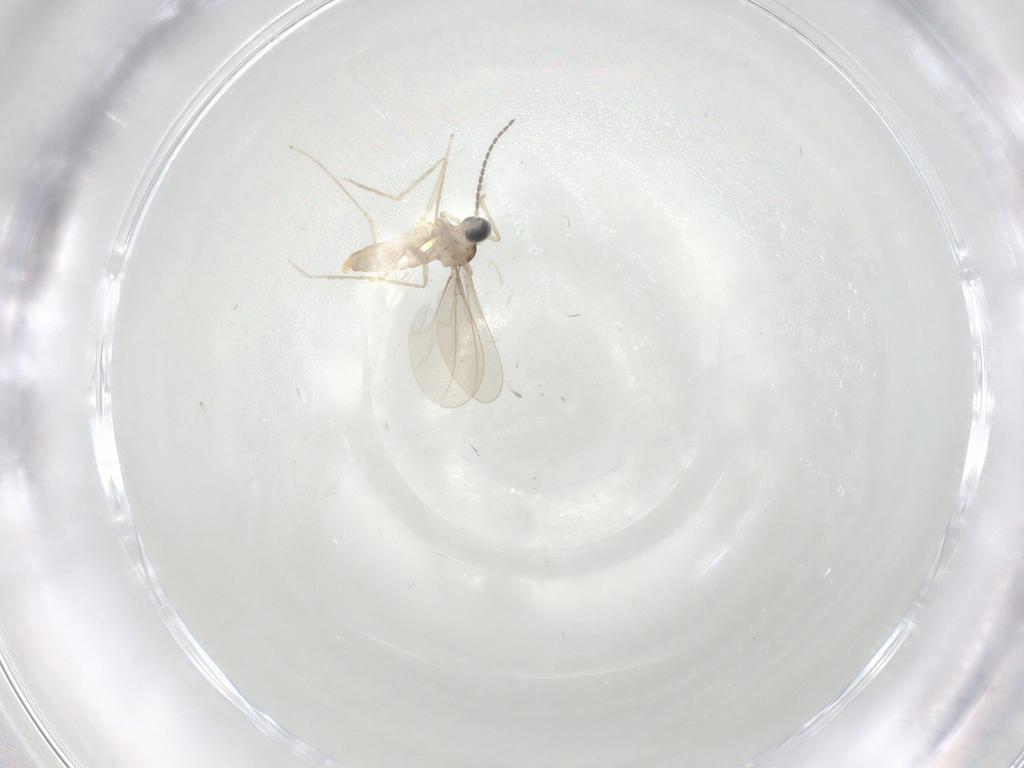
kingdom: Animalia
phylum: Arthropoda
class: Insecta
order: Diptera
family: Cecidomyiidae
